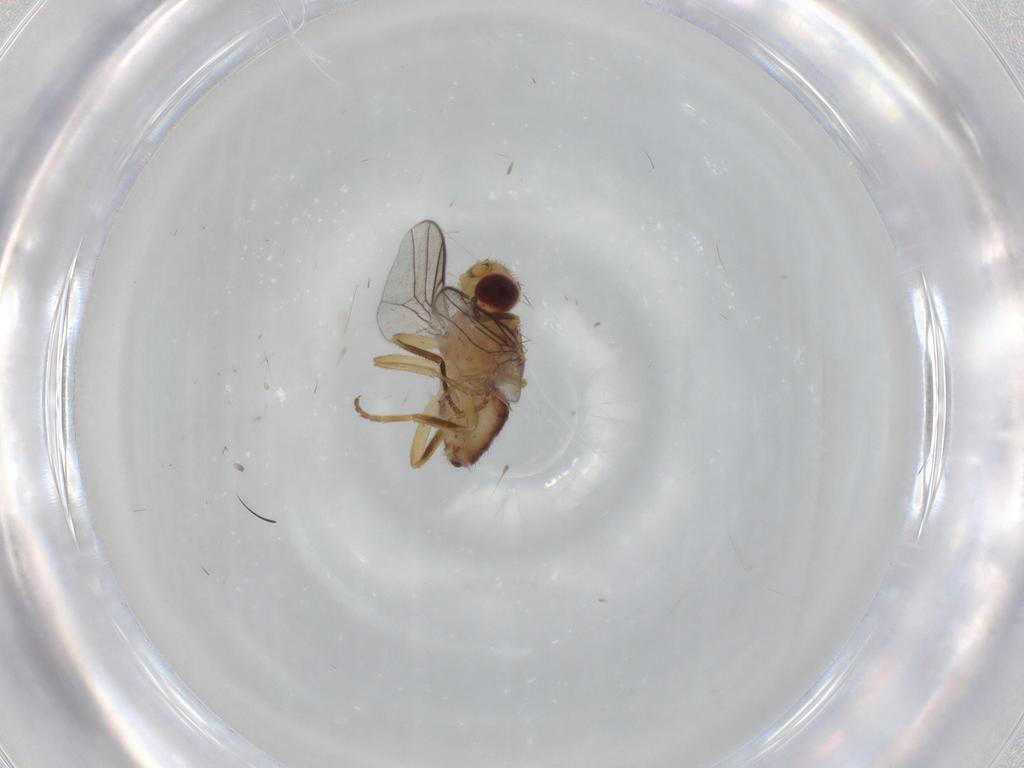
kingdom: Animalia
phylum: Arthropoda
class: Insecta
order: Diptera
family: Chloropidae
